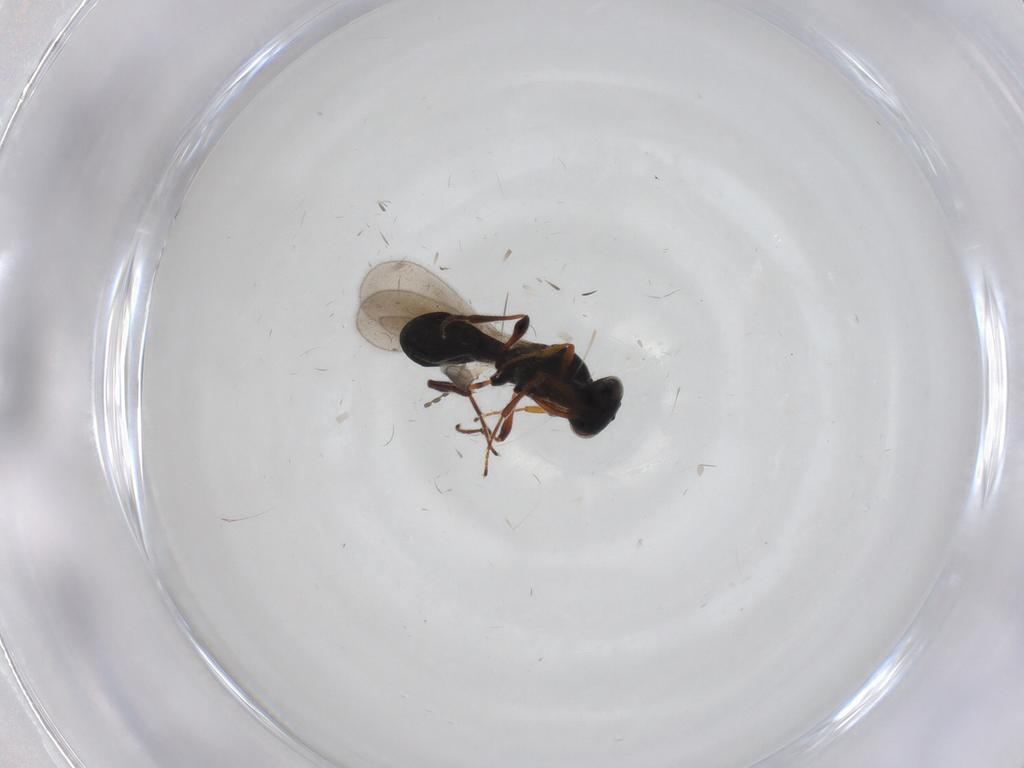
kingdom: Animalia
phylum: Arthropoda
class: Insecta
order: Hymenoptera
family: Platygastridae
